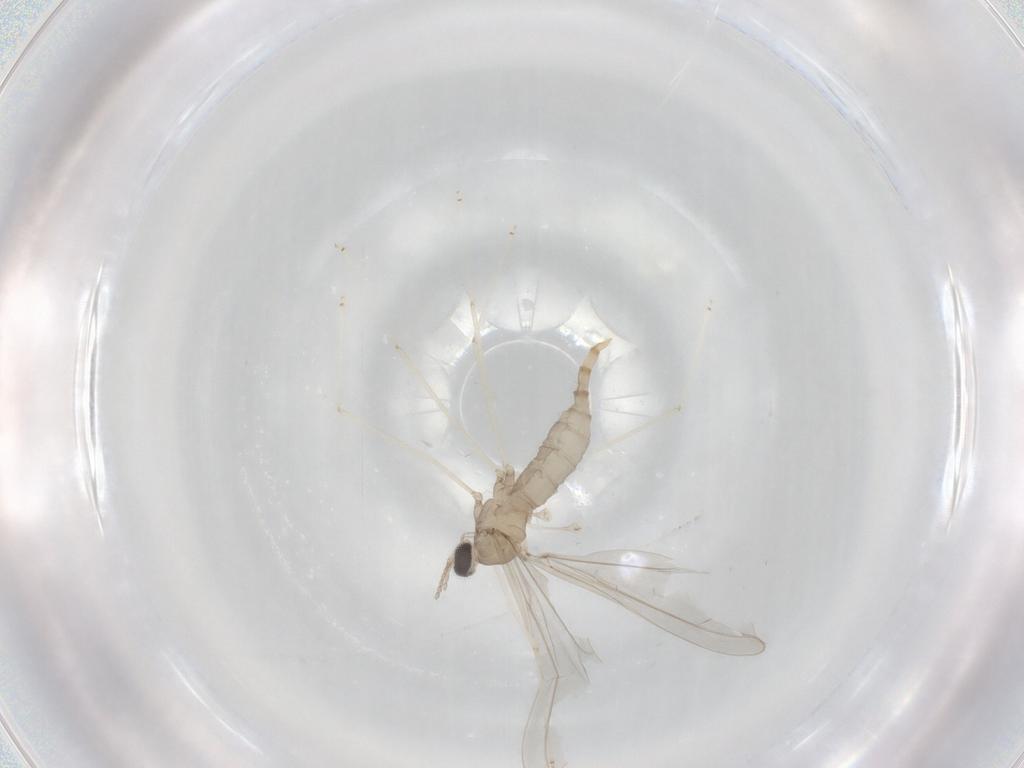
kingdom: Animalia
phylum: Arthropoda
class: Insecta
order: Diptera
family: Cecidomyiidae
